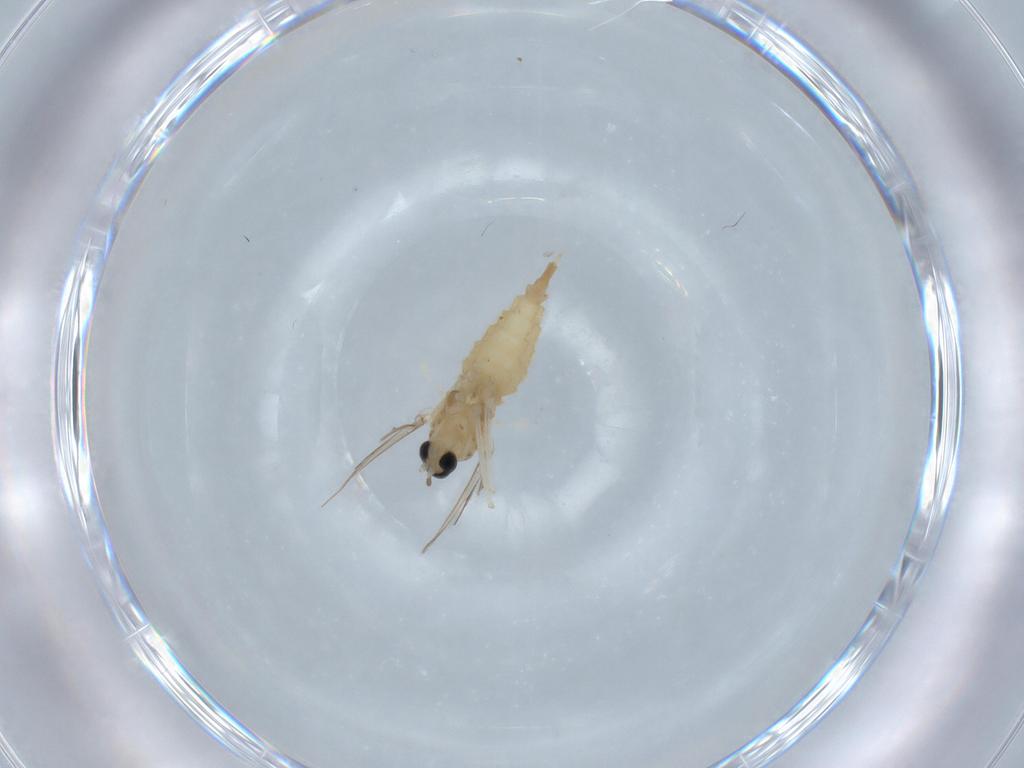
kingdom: Animalia
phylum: Arthropoda
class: Insecta
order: Diptera
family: Cecidomyiidae
